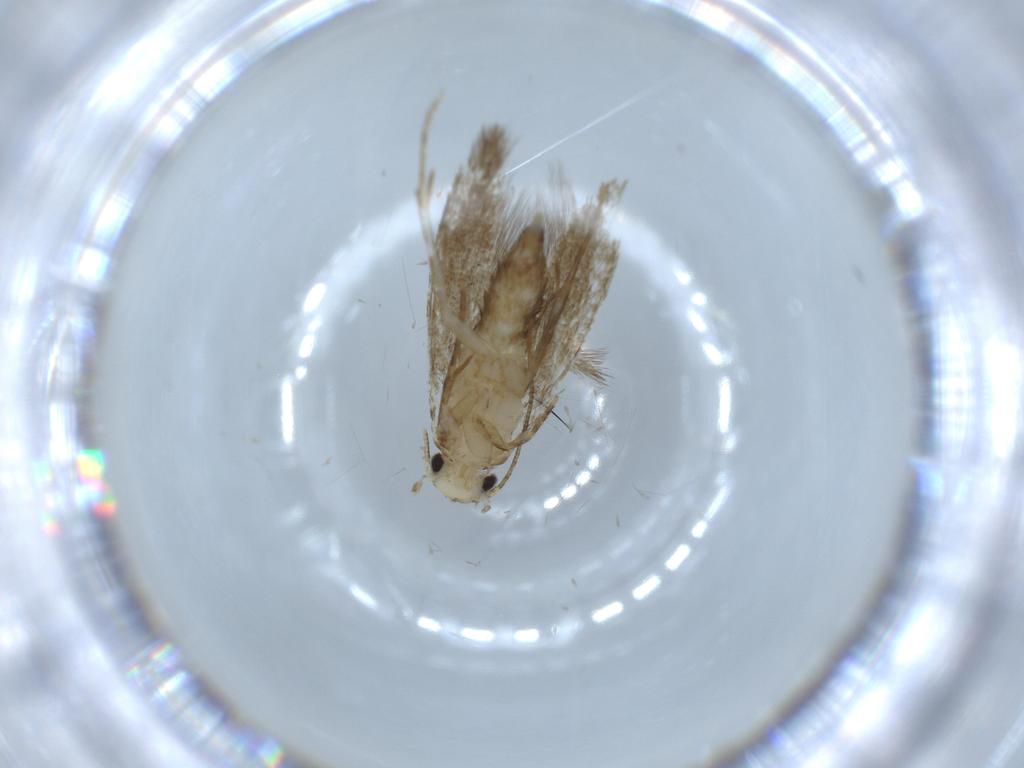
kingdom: Animalia
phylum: Arthropoda
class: Insecta
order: Lepidoptera
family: Tineidae
